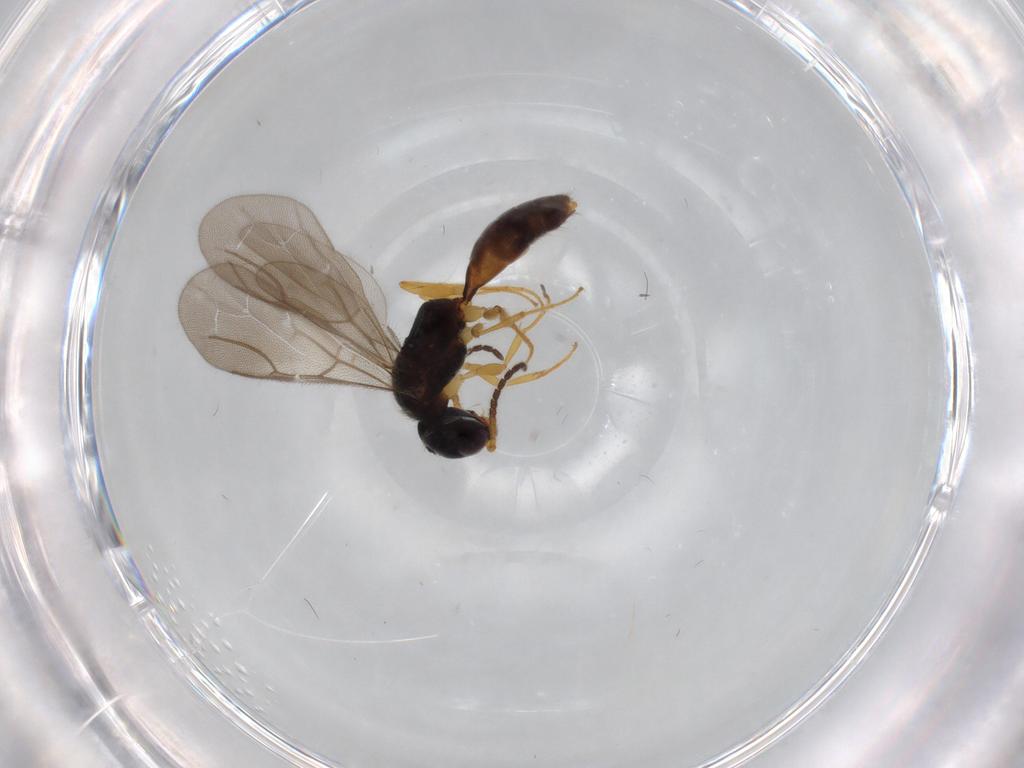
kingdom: Animalia
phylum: Arthropoda
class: Insecta
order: Hymenoptera
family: Bethylidae
